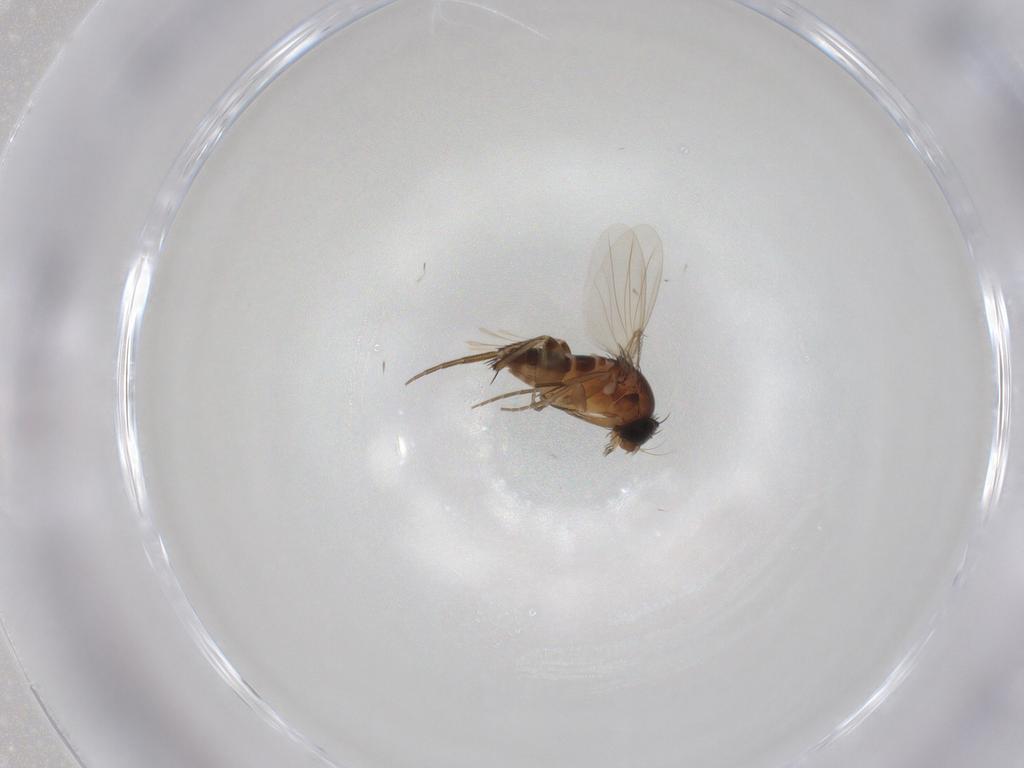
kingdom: Animalia
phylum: Arthropoda
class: Insecta
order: Diptera
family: Phoridae
